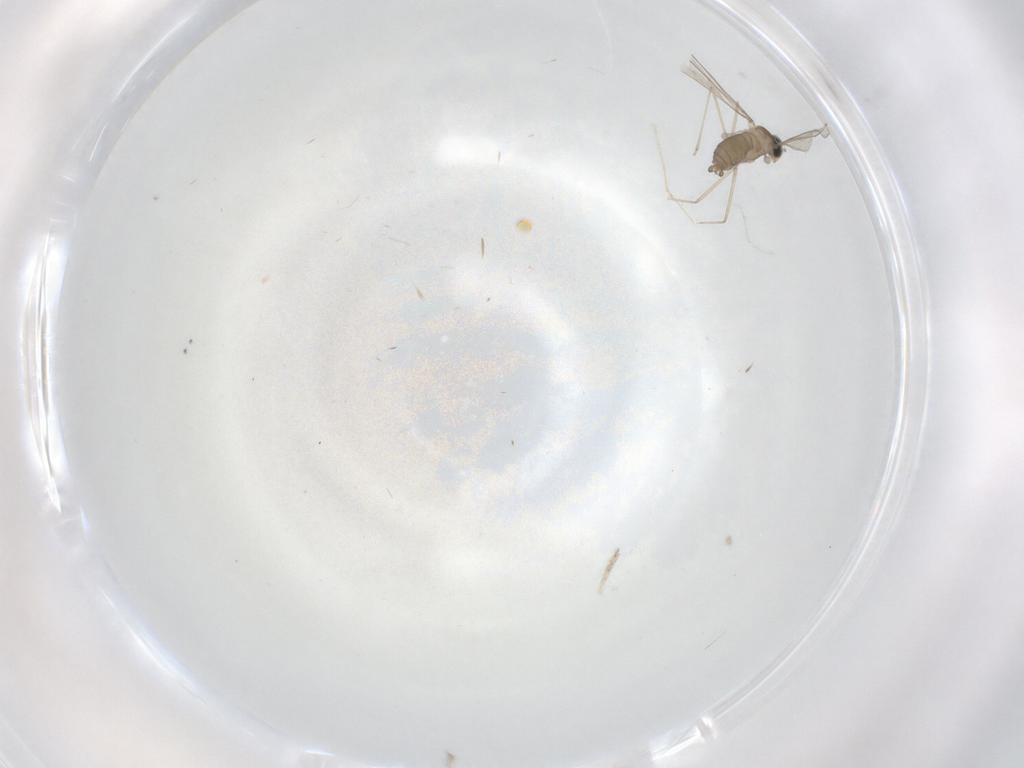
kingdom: Animalia
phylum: Arthropoda
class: Insecta
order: Diptera
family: Cecidomyiidae
